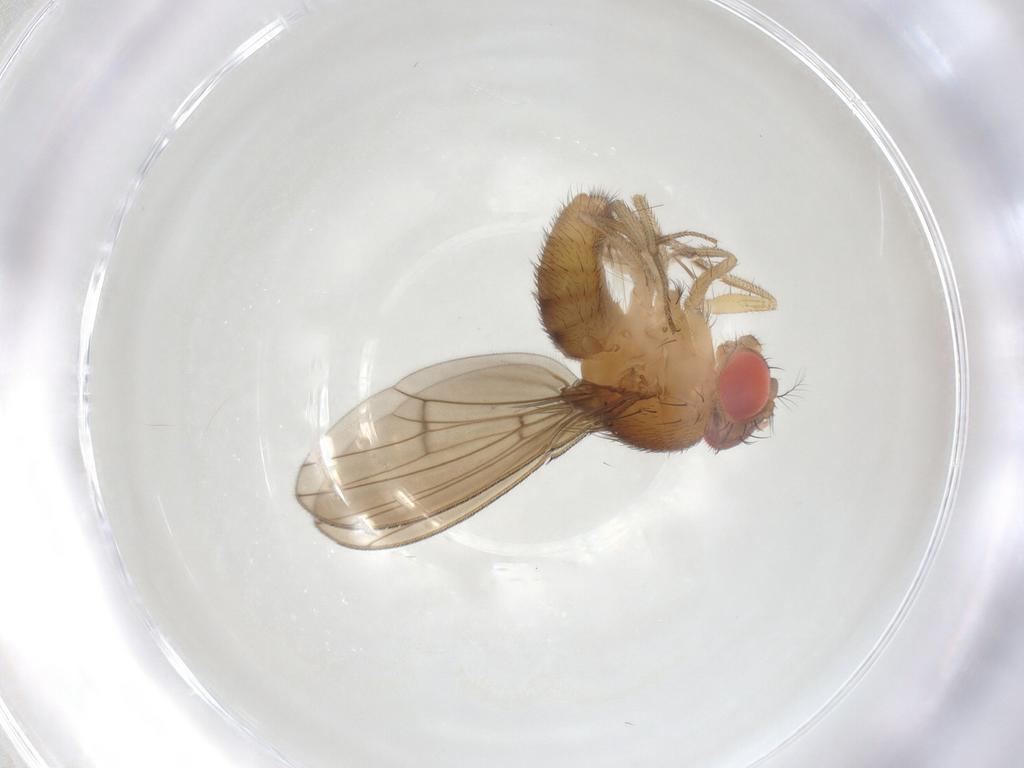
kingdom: Animalia
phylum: Arthropoda
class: Insecta
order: Diptera
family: Drosophilidae
